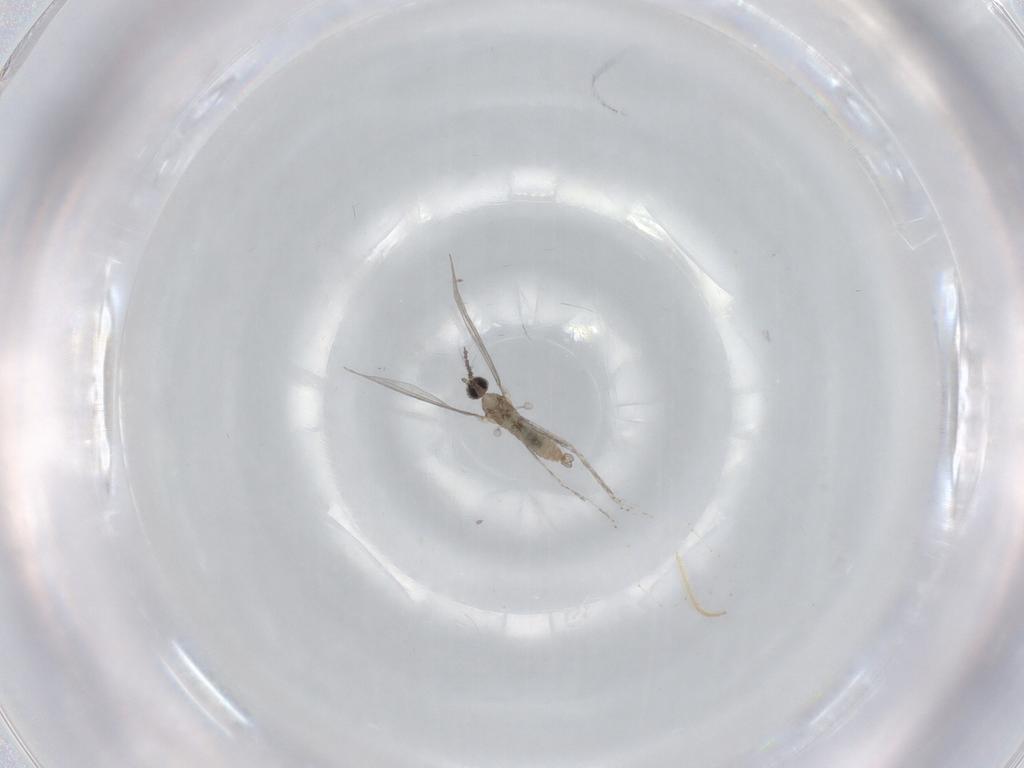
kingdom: Animalia
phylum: Arthropoda
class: Insecta
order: Diptera
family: Cecidomyiidae
